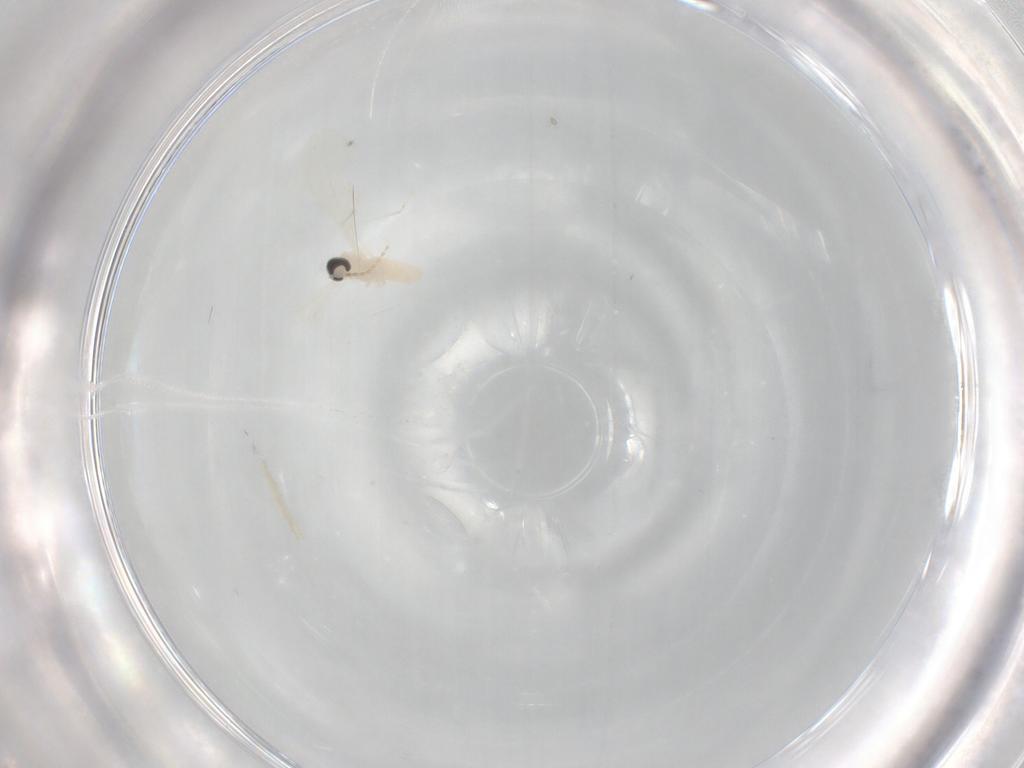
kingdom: Animalia
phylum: Arthropoda
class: Insecta
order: Diptera
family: Cecidomyiidae
